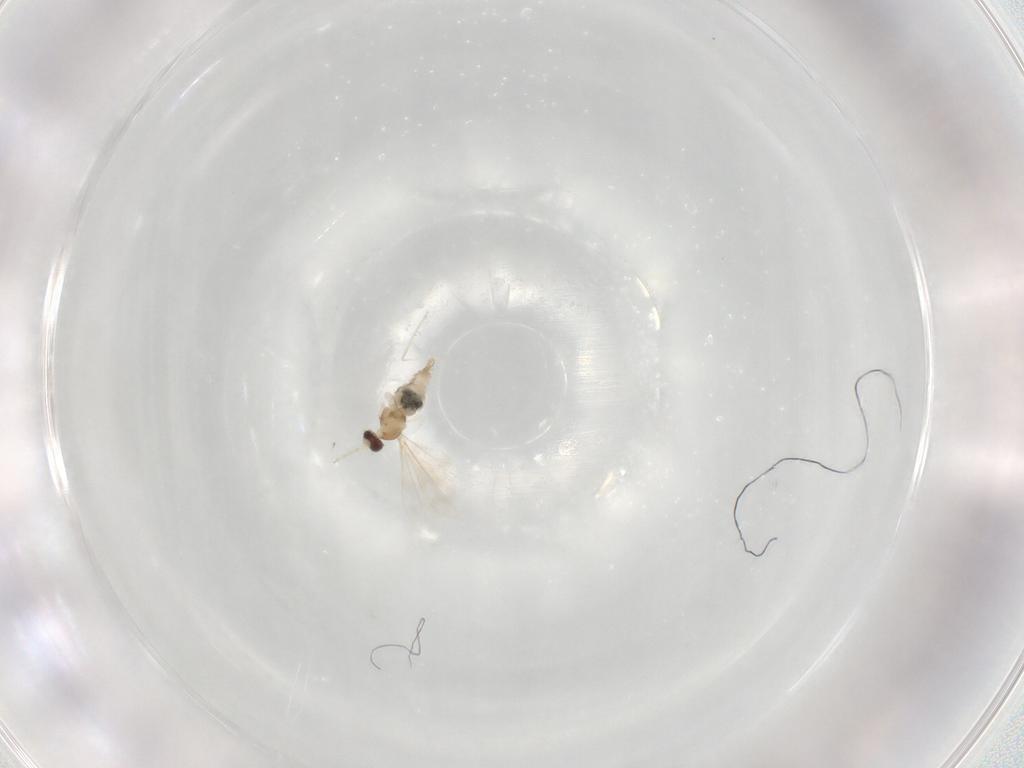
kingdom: Animalia
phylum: Arthropoda
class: Insecta
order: Diptera
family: Cecidomyiidae
